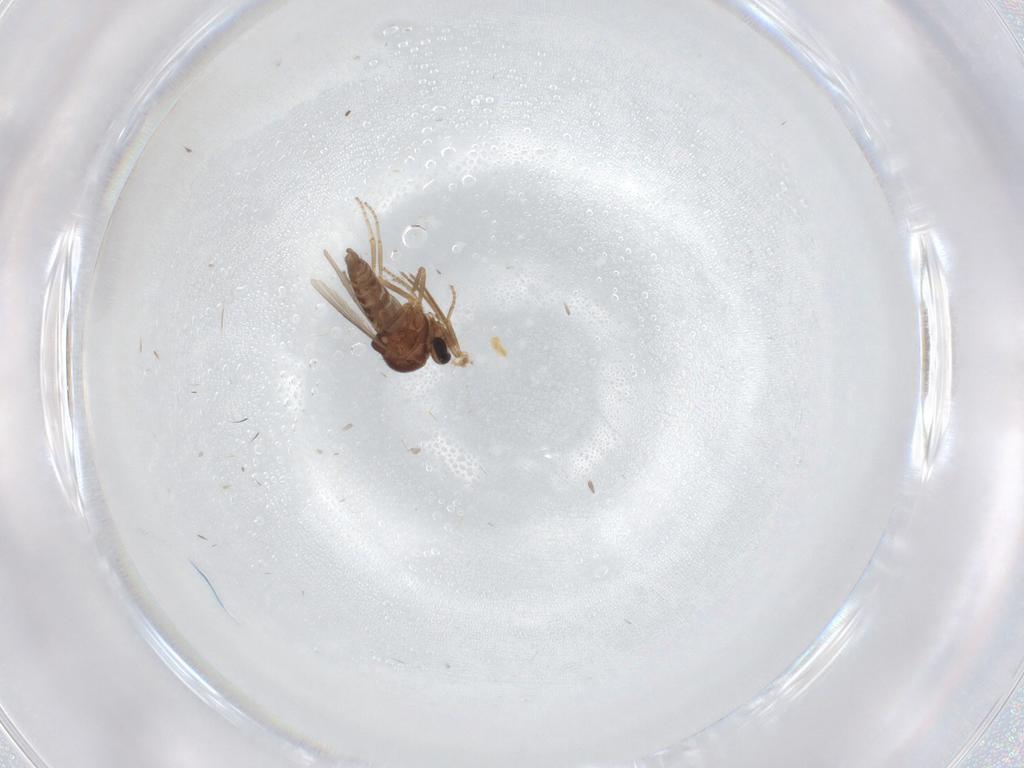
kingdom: Animalia
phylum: Arthropoda
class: Insecta
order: Diptera
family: Ceratopogonidae
